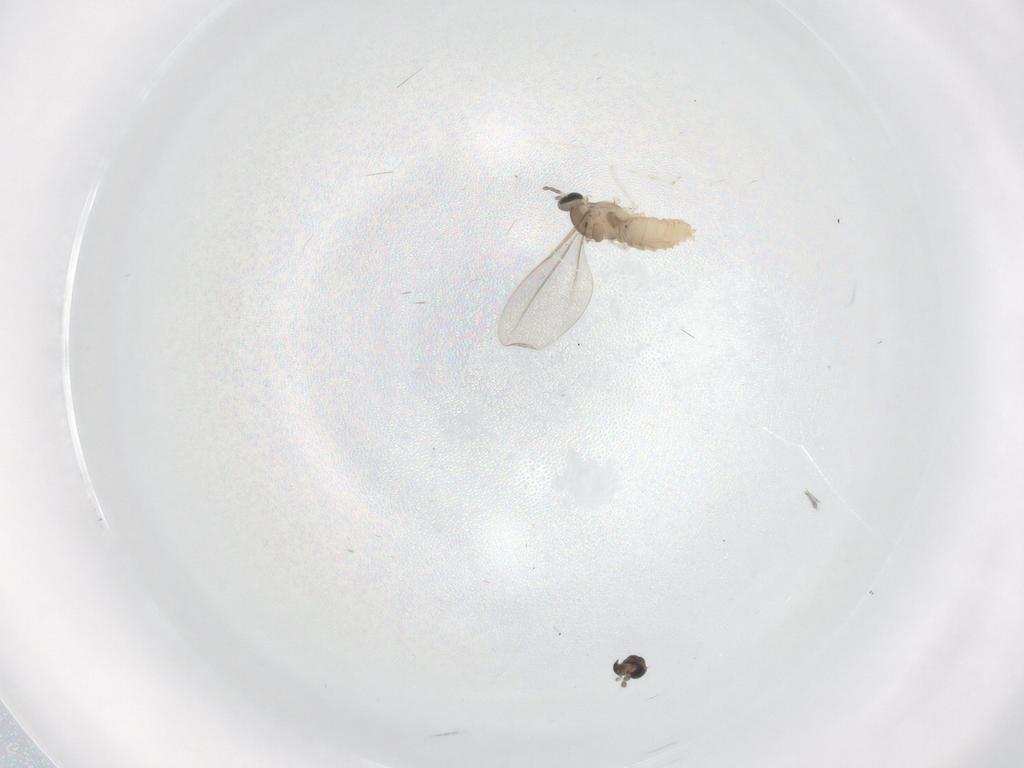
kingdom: Animalia
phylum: Arthropoda
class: Insecta
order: Diptera
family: Cecidomyiidae
